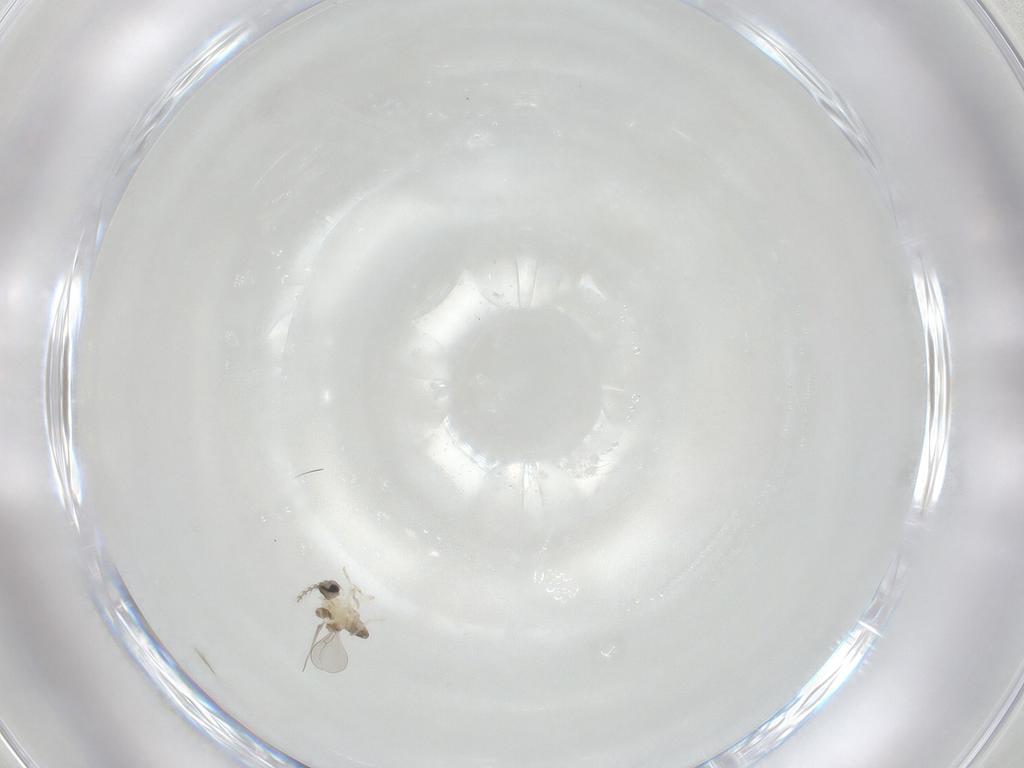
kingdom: Animalia
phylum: Arthropoda
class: Insecta
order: Diptera
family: Cecidomyiidae
